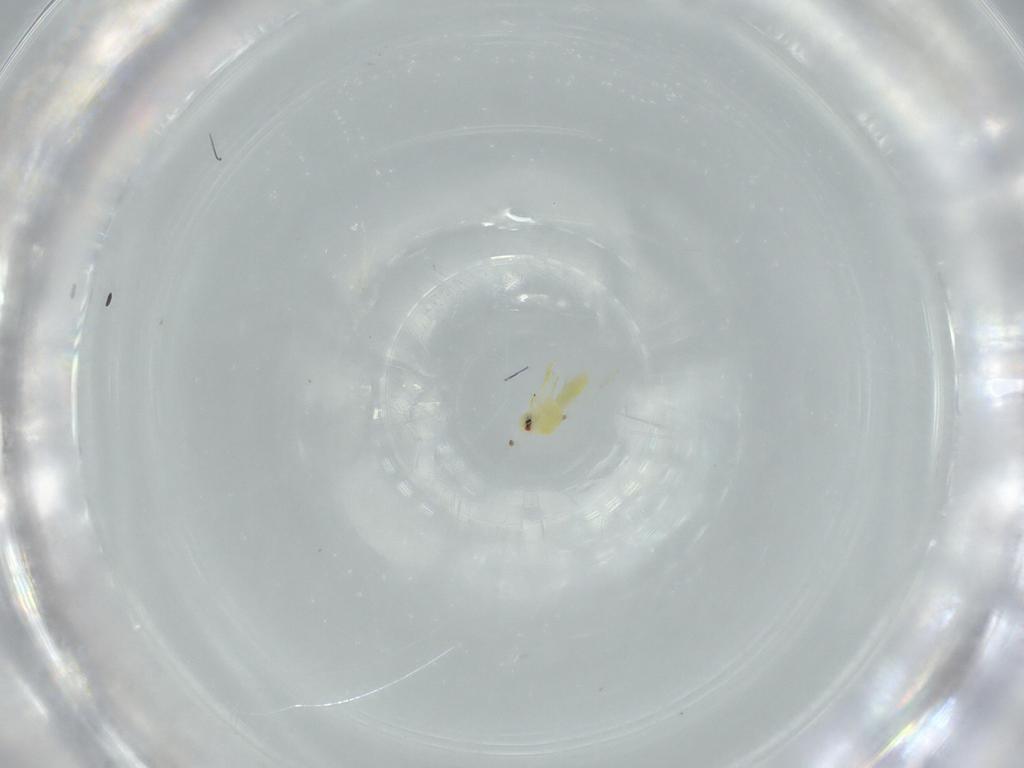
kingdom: Animalia
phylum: Arthropoda
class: Insecta
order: Hemiptera
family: Aleyrodidae
